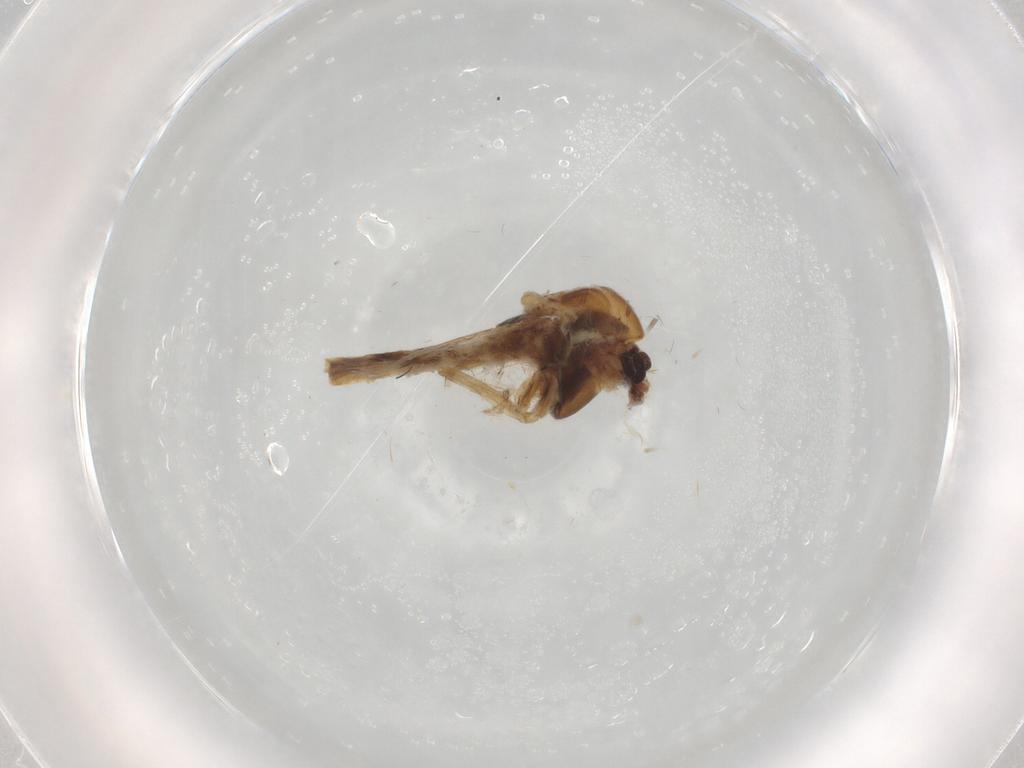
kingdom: Animalia
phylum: Arthropoda
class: Insecta
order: Diptera
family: Chironomidae
